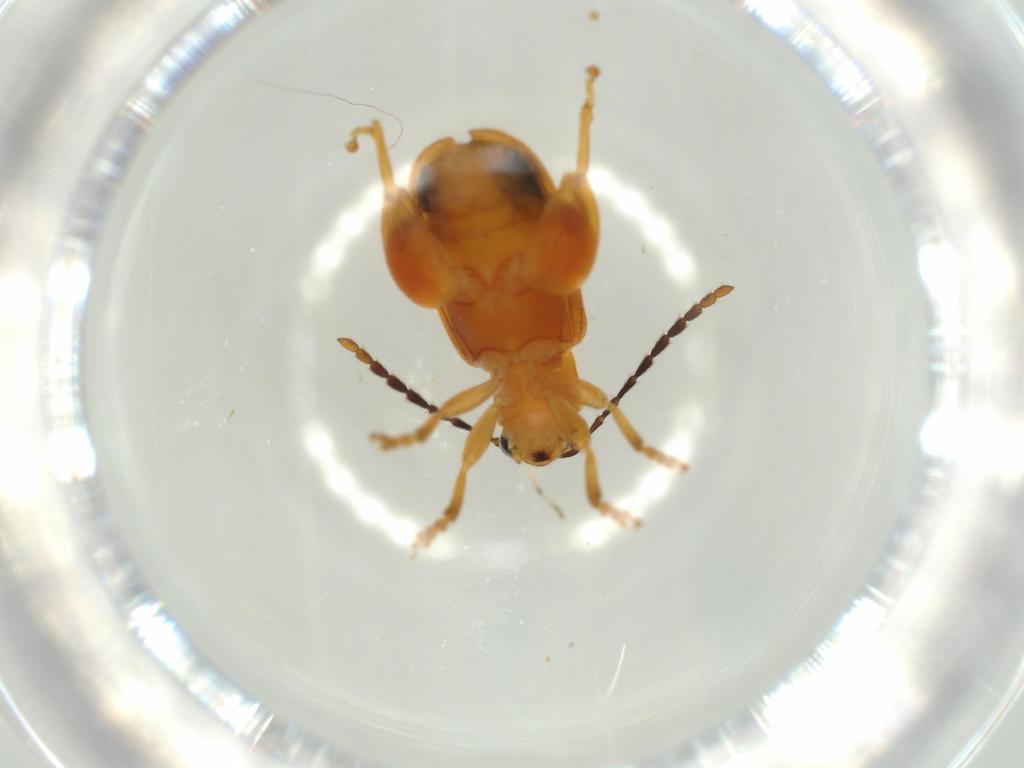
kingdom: Animalia
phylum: Arthropoda
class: Insecta
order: Coleoptera
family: Chrysomelidae
